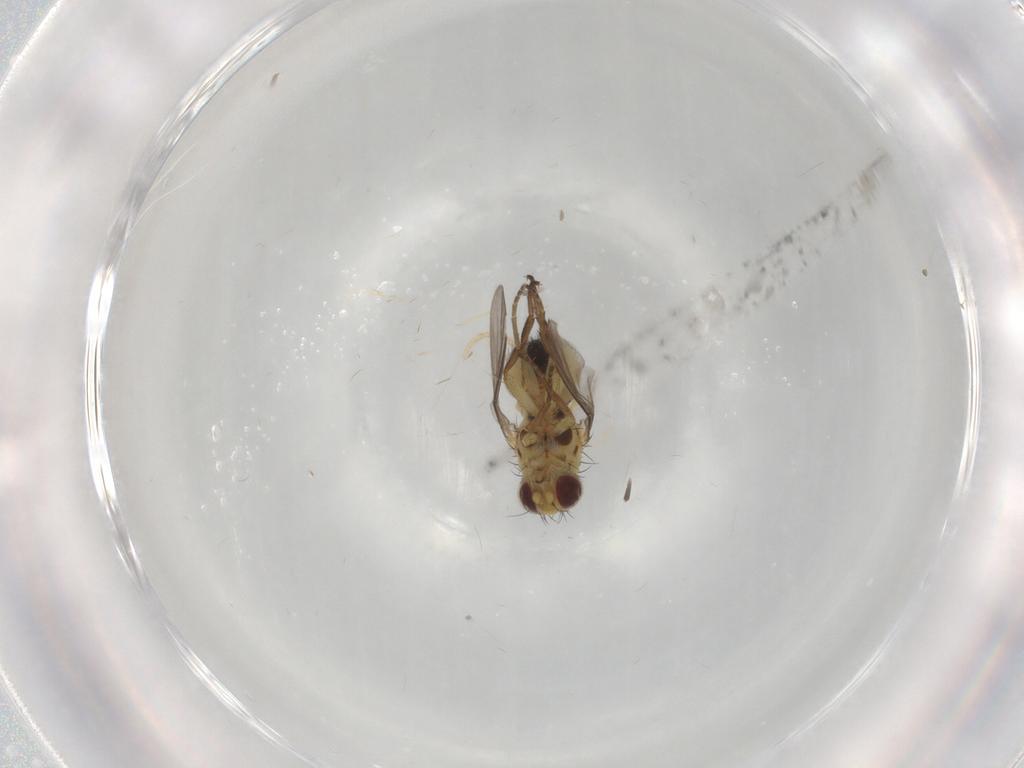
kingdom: Animalia
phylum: Arthropoda
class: Insecta
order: Diptera
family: Agromyzidae
